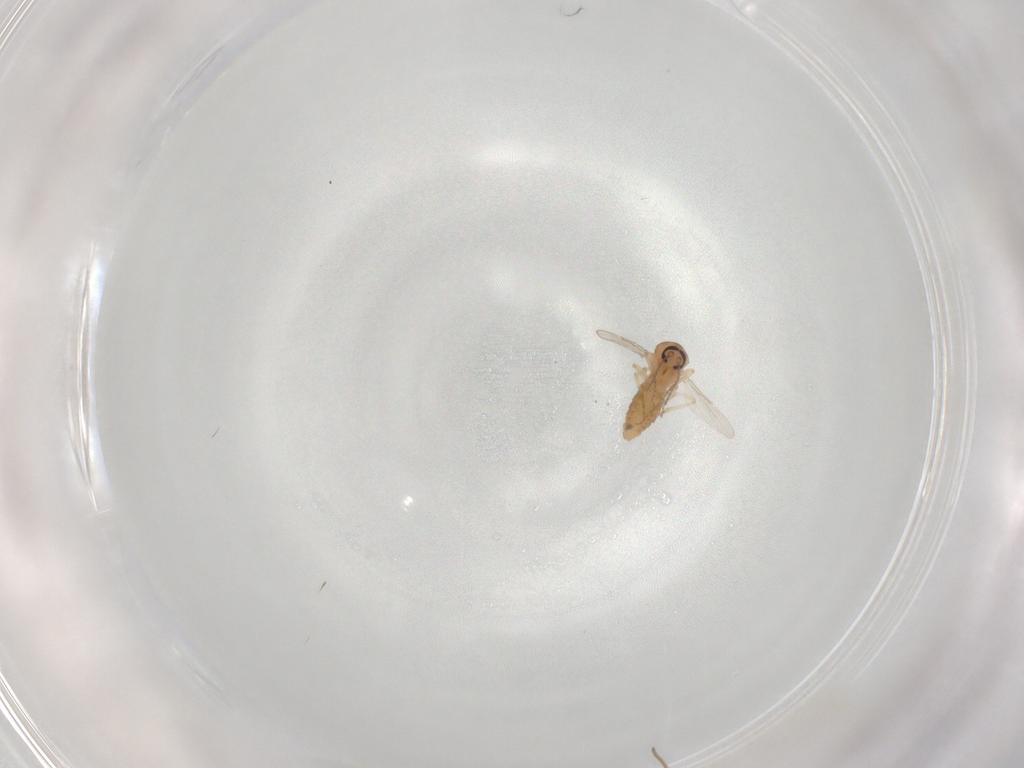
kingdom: Animalia
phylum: Arthropoda
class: Insecta
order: Diptera
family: Ceratopogonidae
